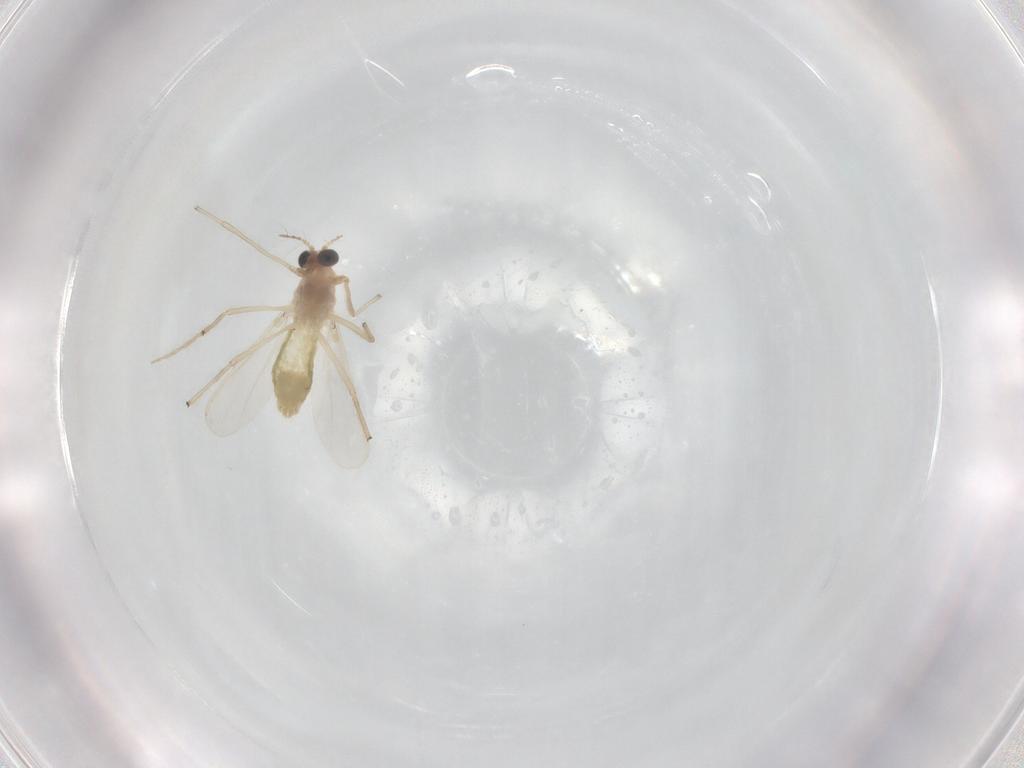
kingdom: Animalia
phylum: Arthropoda
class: Insecta
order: Diptera
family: Chironomidae
